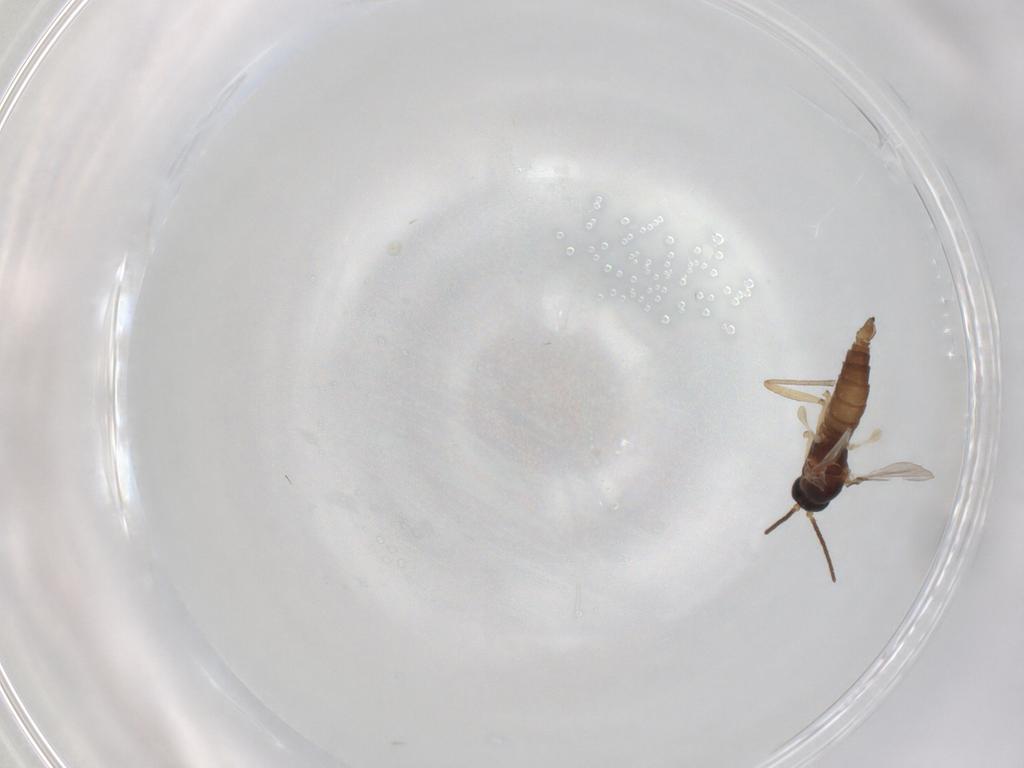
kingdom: Animalia
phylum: Arthropoda
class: Insecta
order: Diptera
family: Sciaridae
